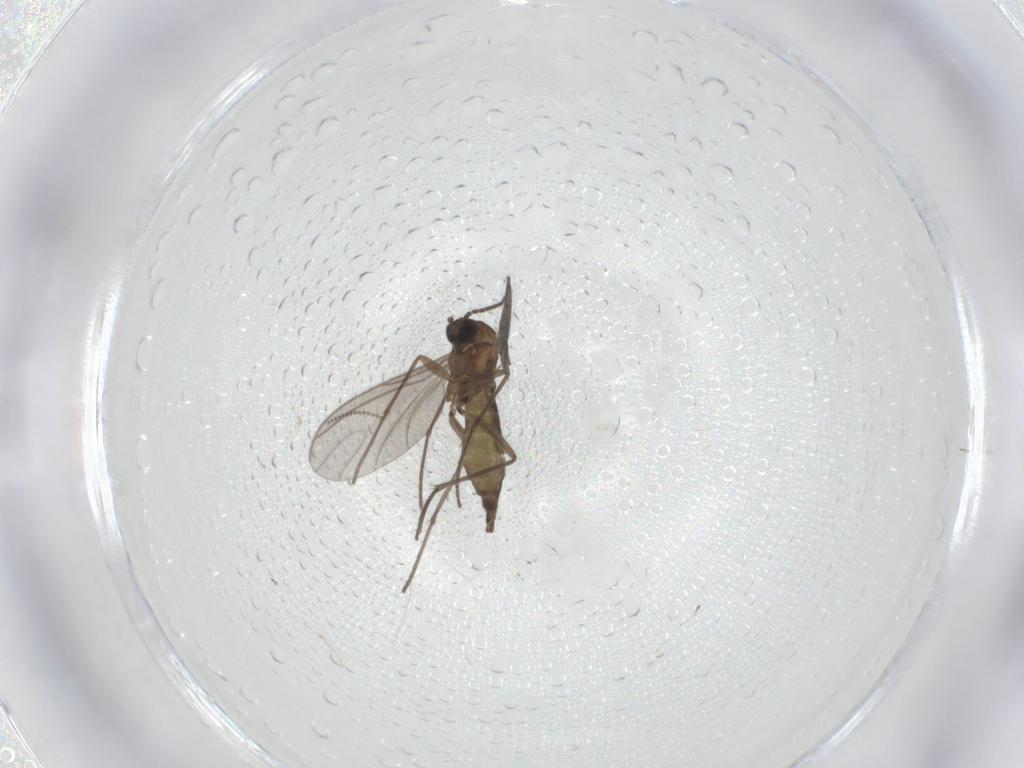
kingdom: Animalia
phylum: Arthropoda
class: Insecta
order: Diptera
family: Sciaridae
